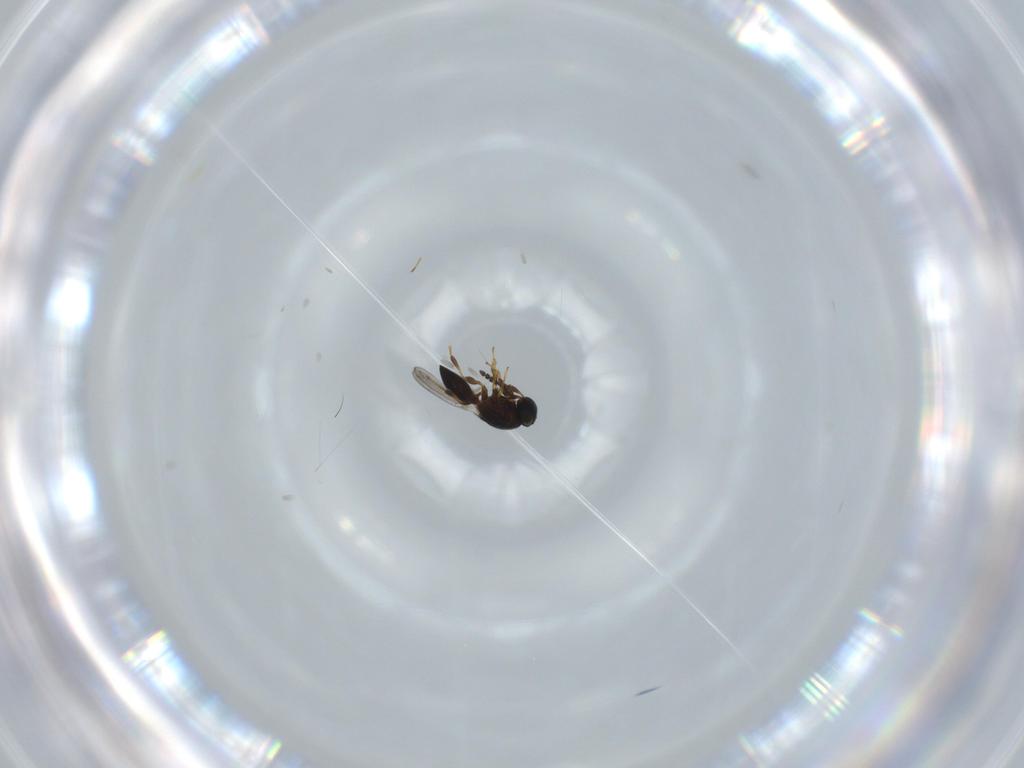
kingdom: Animalia
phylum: Arthropoda
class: Insecta
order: Hymenoptera
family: Platygastridae
